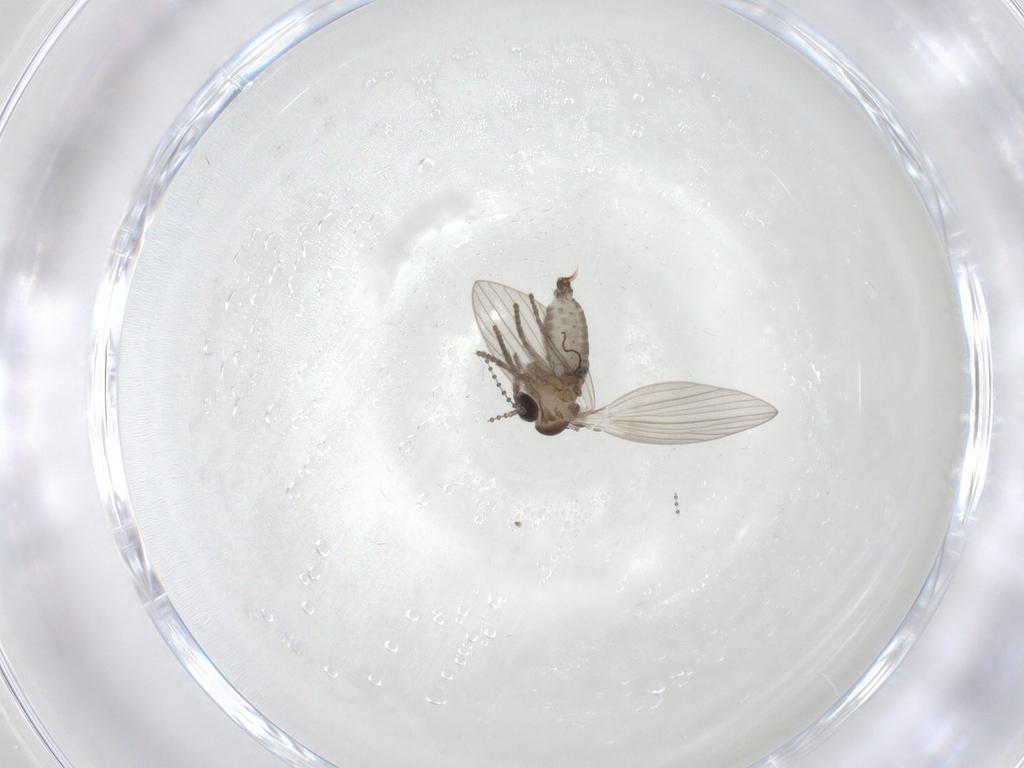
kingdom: Animalia
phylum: Arthropoda
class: Insecta
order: Diptera
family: Psychodidae
